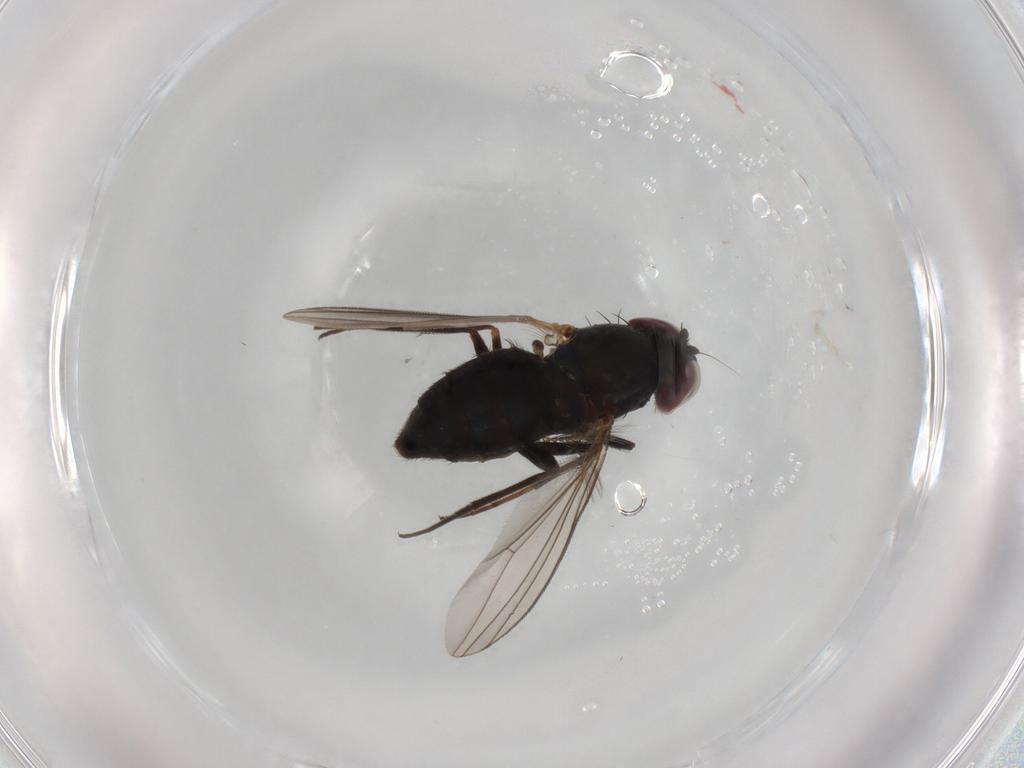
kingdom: Animalia
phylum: Arthropoda
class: Insecta
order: Diptera
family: Dolichopodidae
